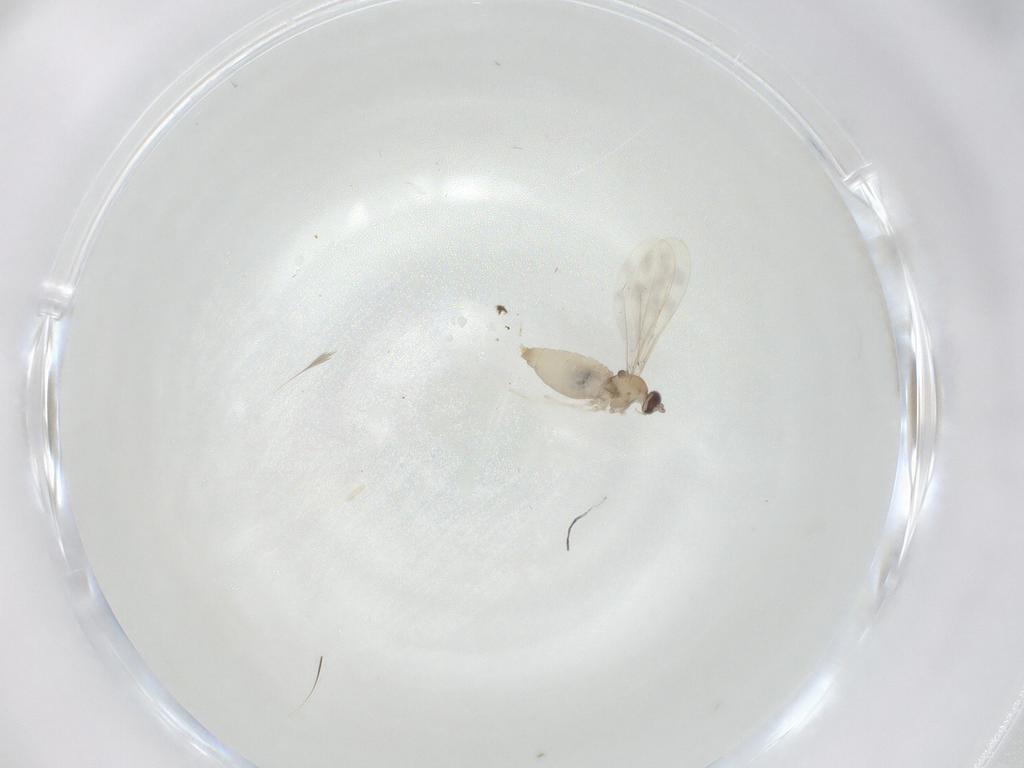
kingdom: Animalia
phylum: Arthropoda
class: Insecta
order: Diptera
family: Cecidomyiidae
